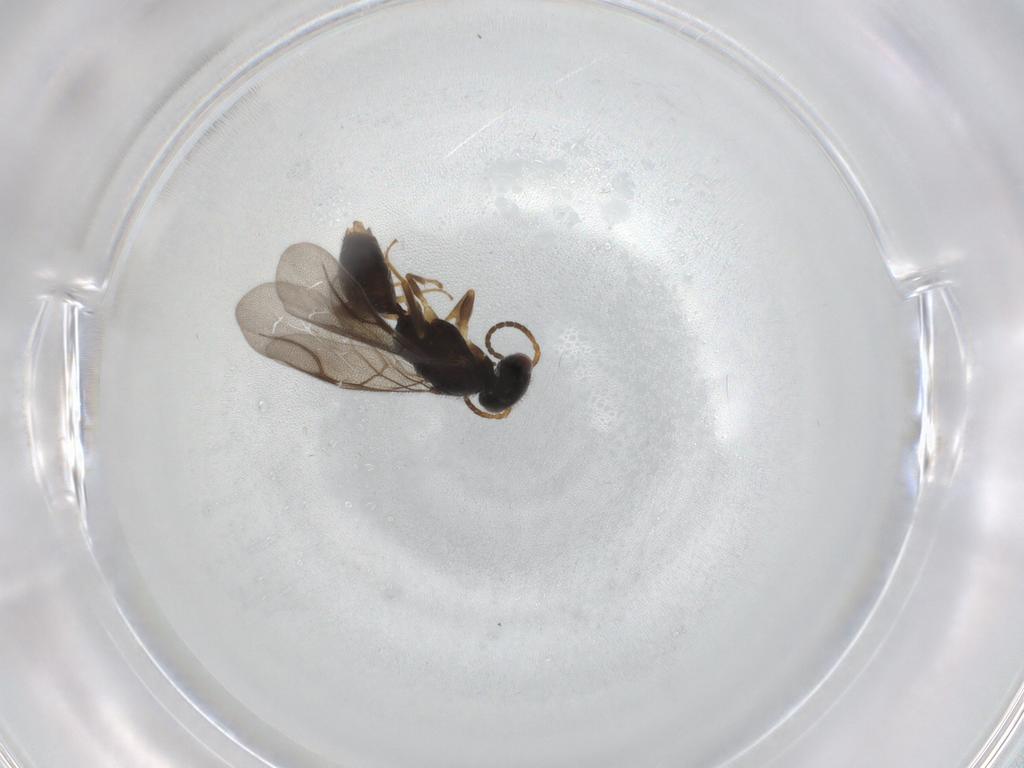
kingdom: Animalia
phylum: Arthropoda
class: Insecta
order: Hymenoptera
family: Bethylidae
